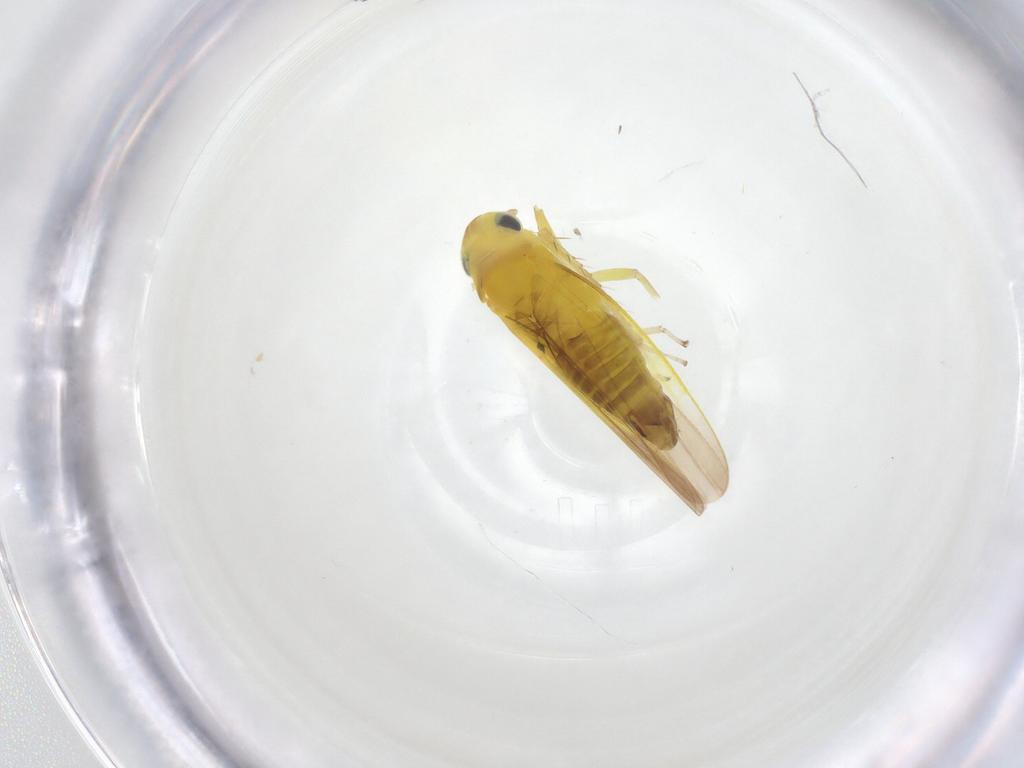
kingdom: Animalia
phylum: Arthropoda
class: Insecta
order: Hemiptera
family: Cicadellidae
